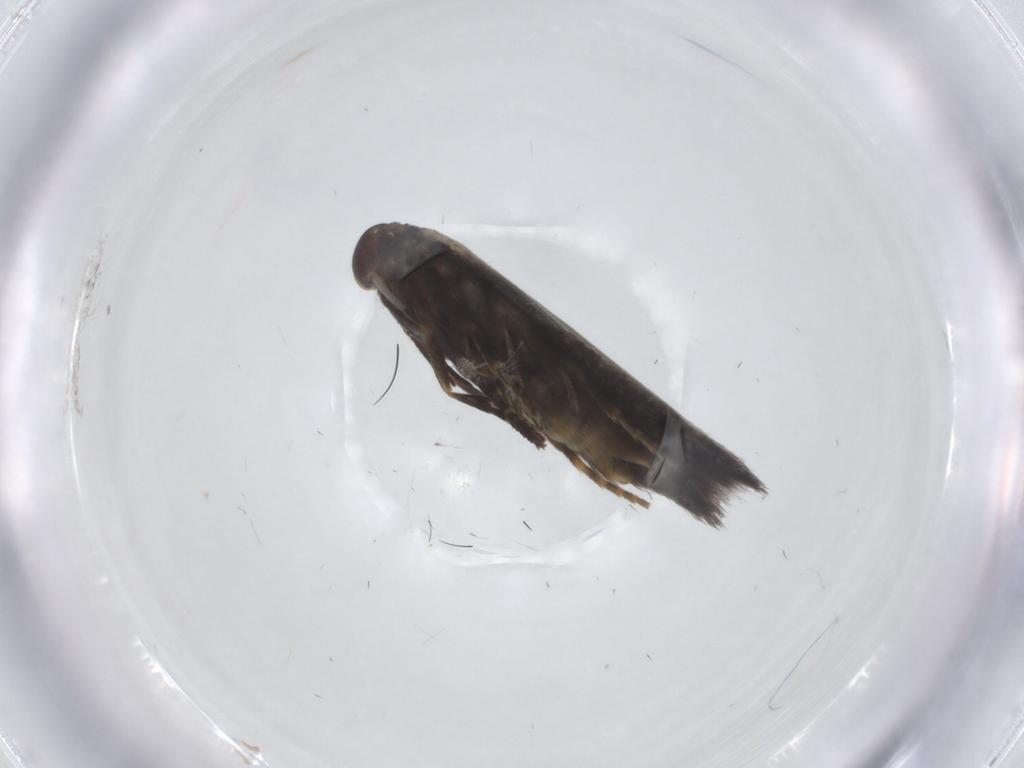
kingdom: Animalia
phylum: Arthropoda
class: Insecta
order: Lepidoptera
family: Elachistidae
